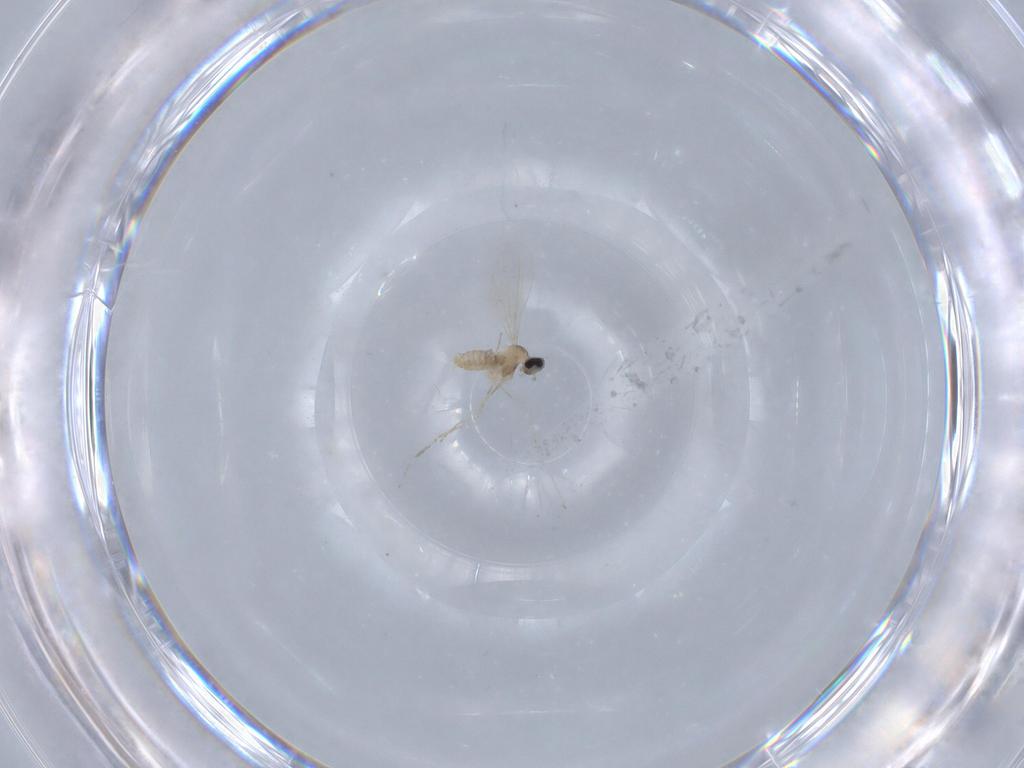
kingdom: Animalia
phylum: Arthropoda
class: Insecta
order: Diptera
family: Cecidomyiidae
